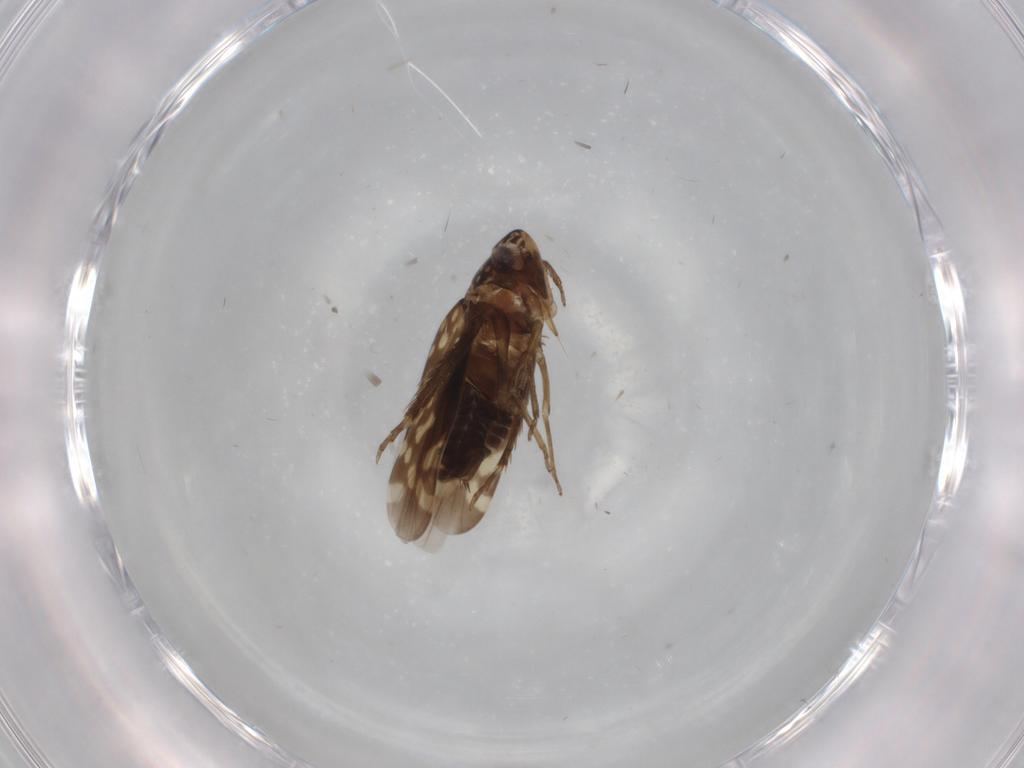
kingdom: Animalia
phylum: Arthropoda
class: Insecta
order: Hemiptera
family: Cicadellidae
